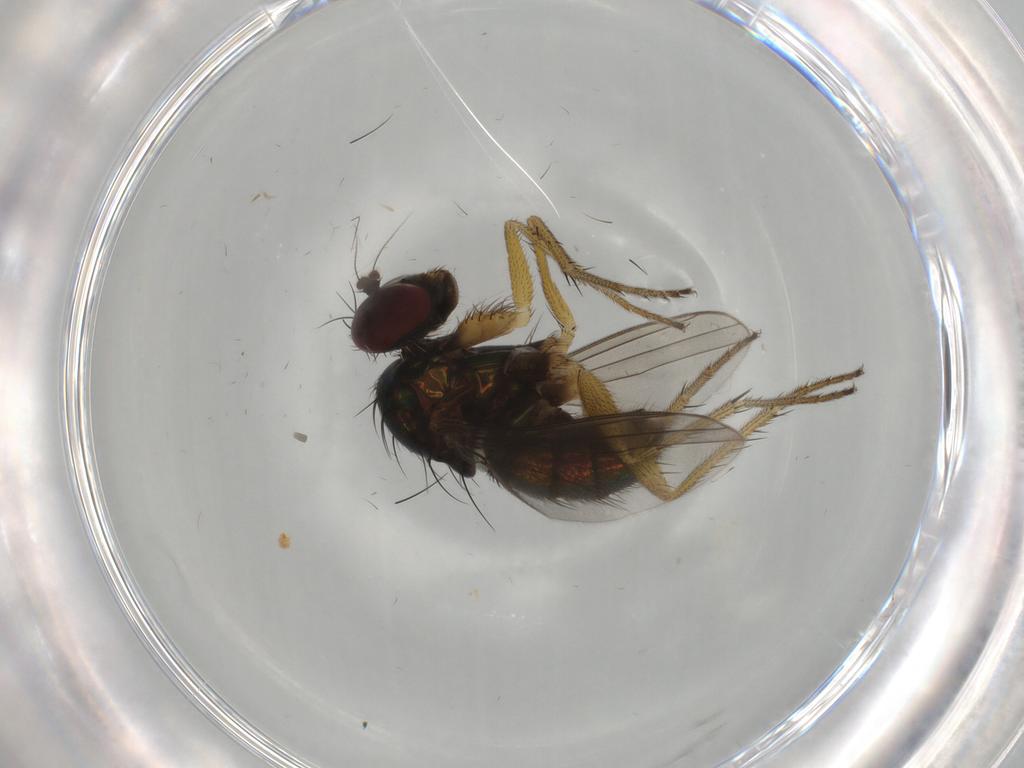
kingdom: Animalia
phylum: Arthropoda
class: Insecta
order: Diptera
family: Dolichopodidae
